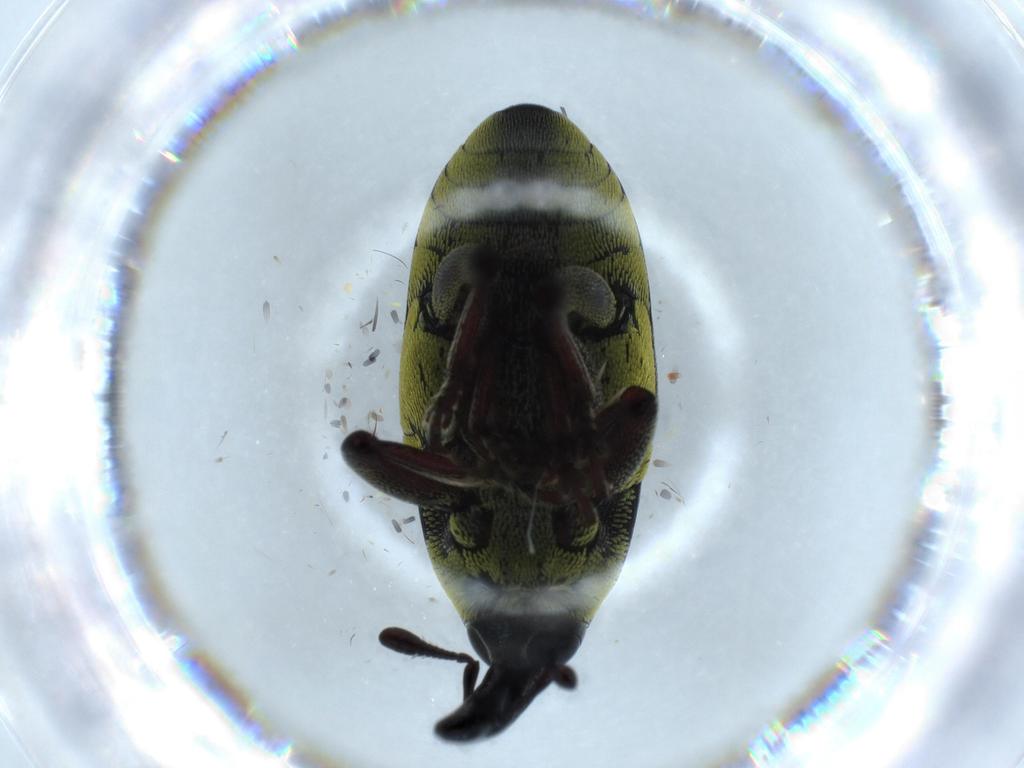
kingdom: Animalia
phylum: Arthropoda
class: Insecta
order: Coleoptera
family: Curculionidae
